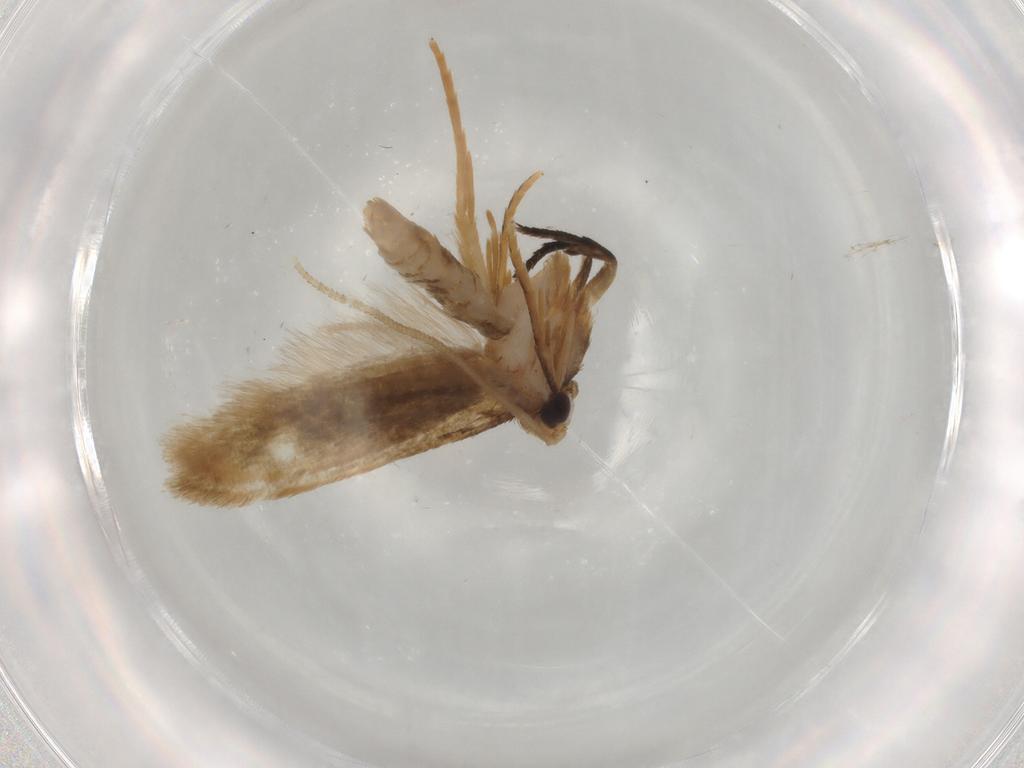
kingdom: Animalia
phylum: Arthropoda
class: Insecta
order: Lepidoptera
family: Cosmopterigidae
